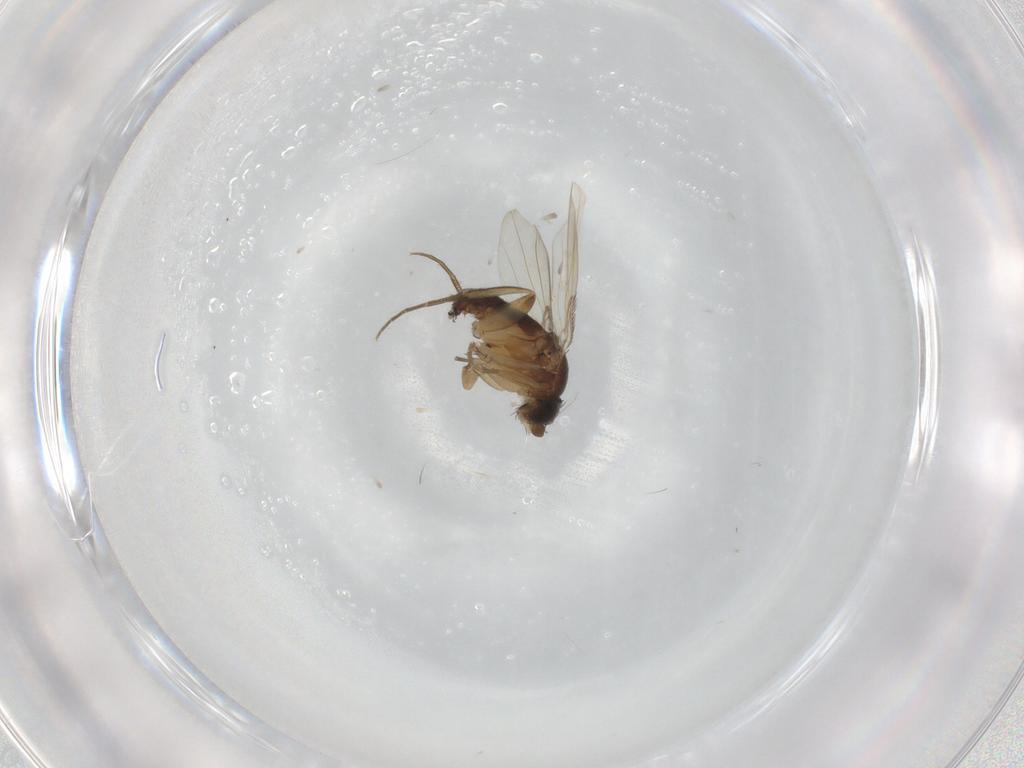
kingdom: Animalia
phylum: Arthropoda
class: Insecta
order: Diptera
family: Phoridae
